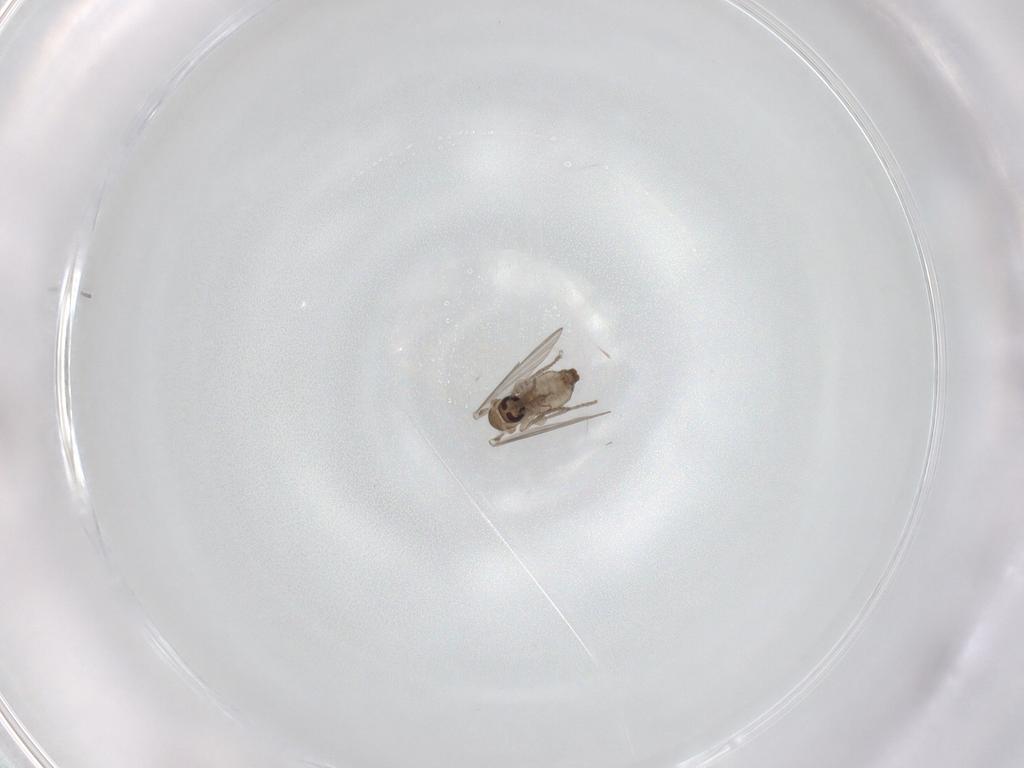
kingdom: Animalia
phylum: Arthropoda
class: Insecta
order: Diptera
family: Psychodidae
